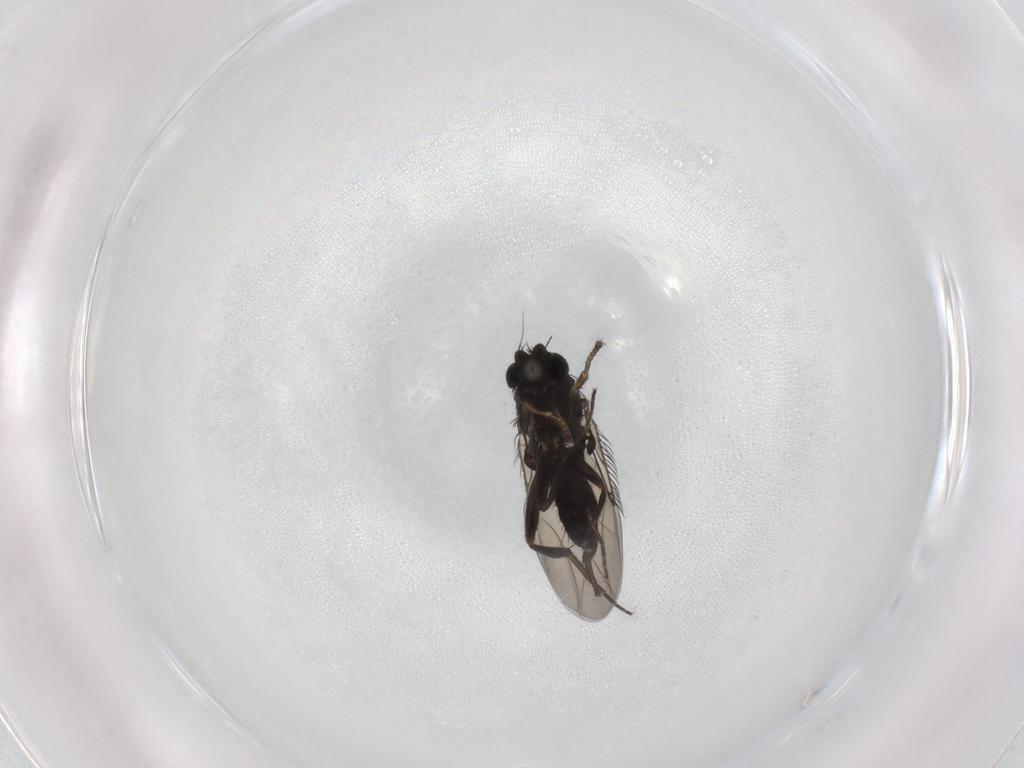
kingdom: Animalia
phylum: Arthropoda
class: Insecta
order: Diptera
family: Phoridae
